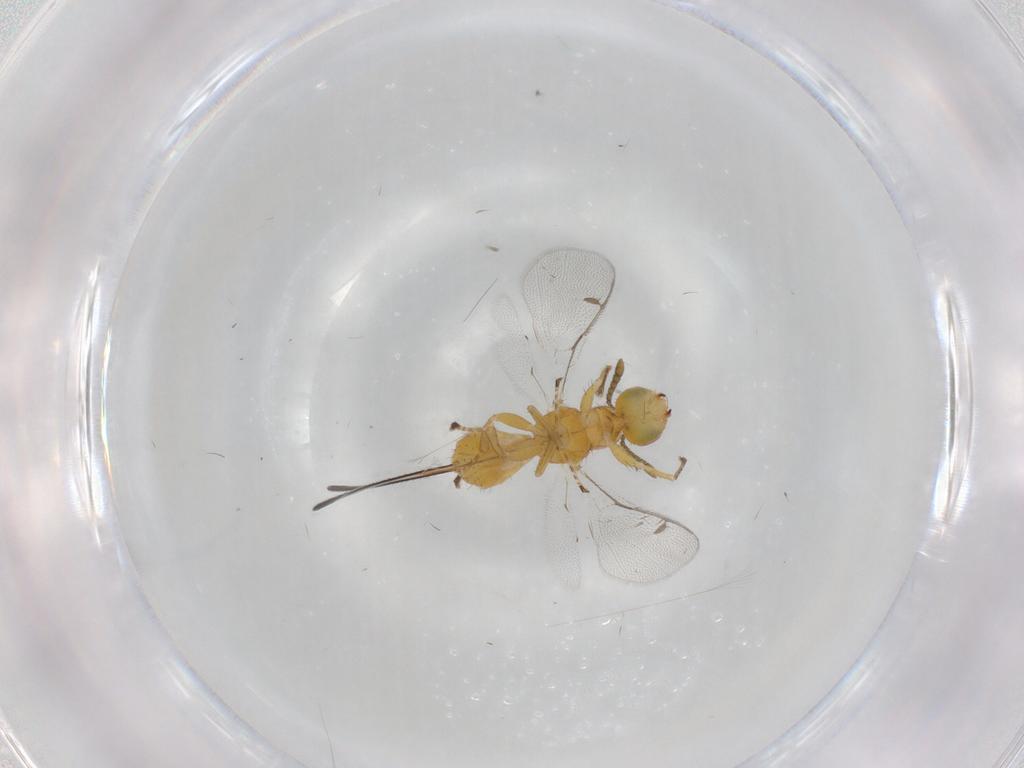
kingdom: Animalia
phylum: Arthropoda
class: Insecta
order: Hymenoptera
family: Megastigmidae
